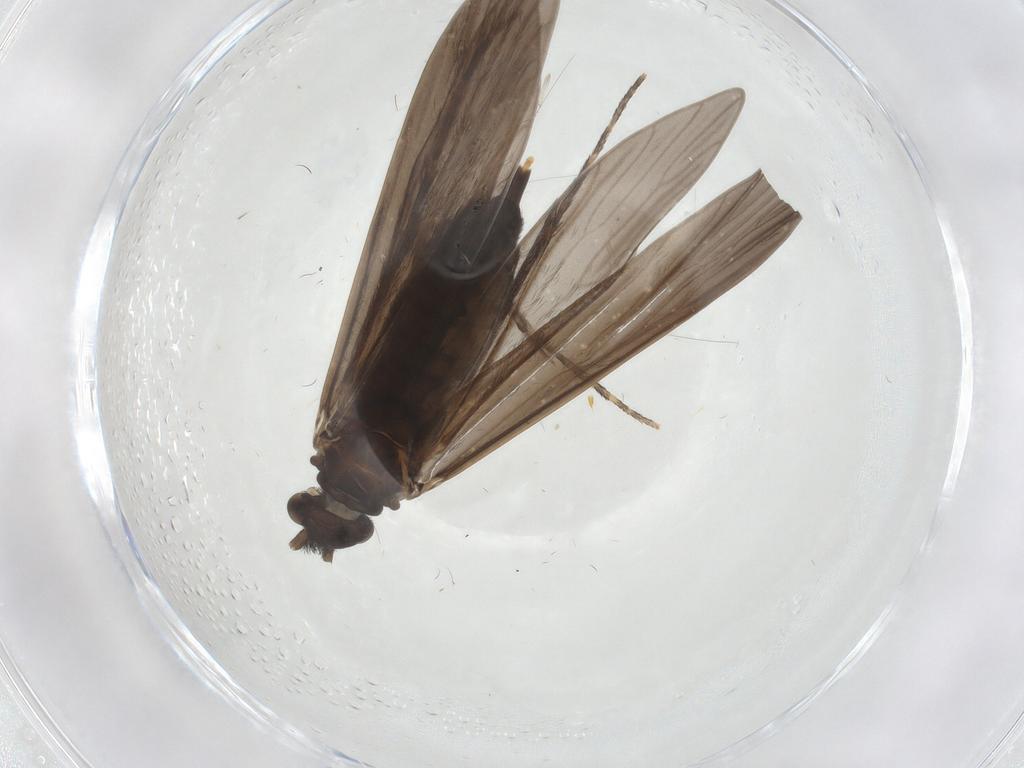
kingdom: Animalia
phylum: Arthropoda
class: Insecta
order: Trichoptera
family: Xiphocentronidae
